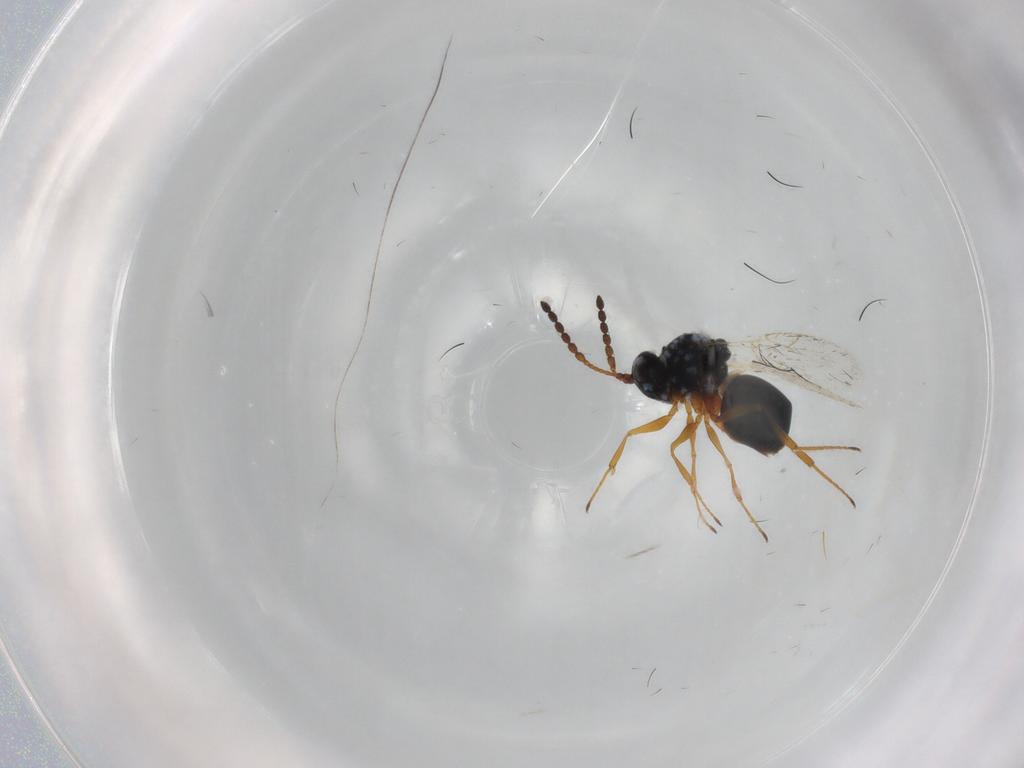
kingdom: Animalia
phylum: Arthropoda
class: Insecta
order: Hymenoptera
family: Figitidae
